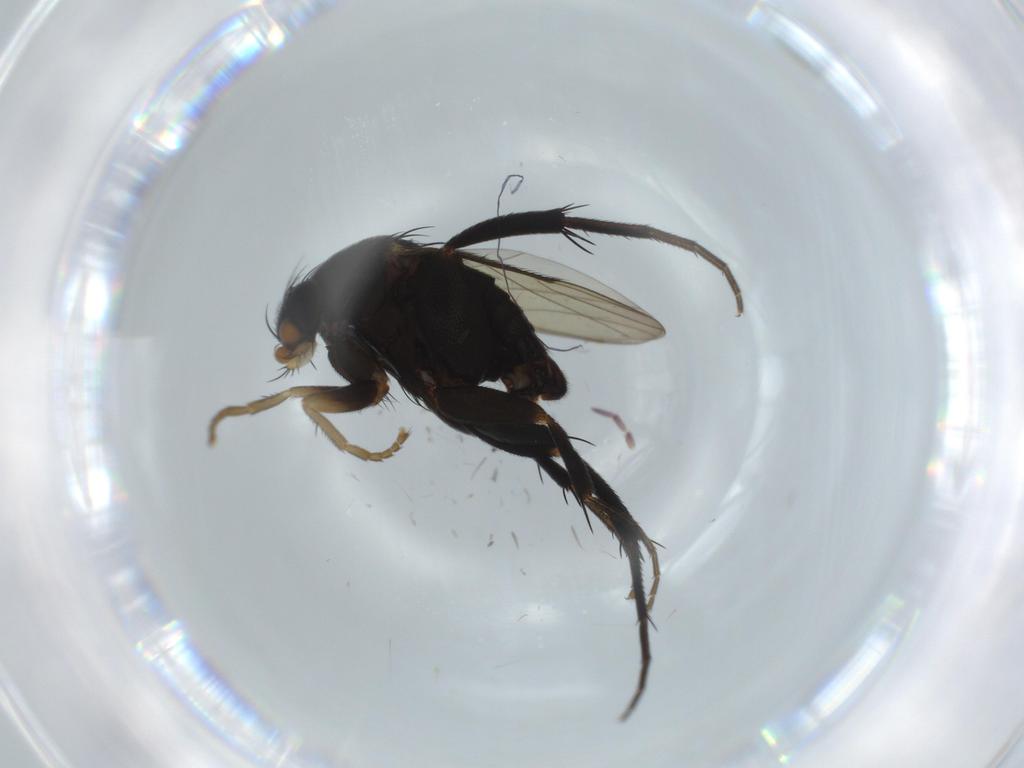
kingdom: Animalia
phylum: Arthropoda
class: Insecta
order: Diptera
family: Phoridae
